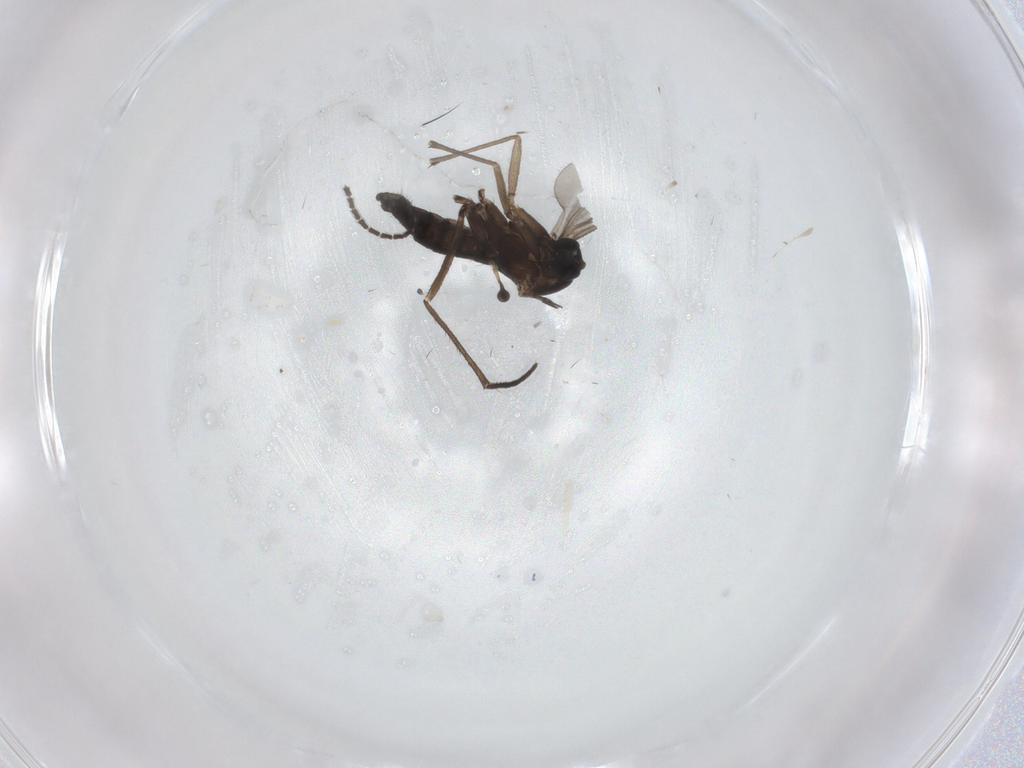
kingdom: Animalia
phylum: Arthropoda
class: Insecta
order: Diptera
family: Sciaridae
